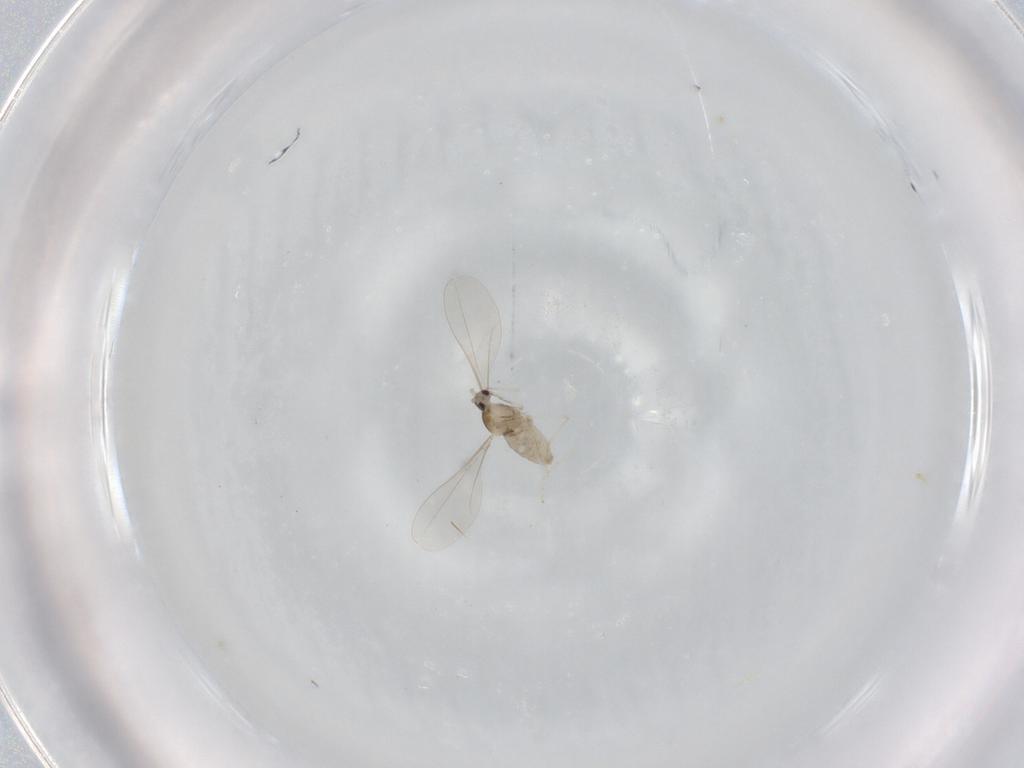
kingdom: Animalia
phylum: Arthropoda
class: Insecta
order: Diptera
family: Cecidomyiidae
